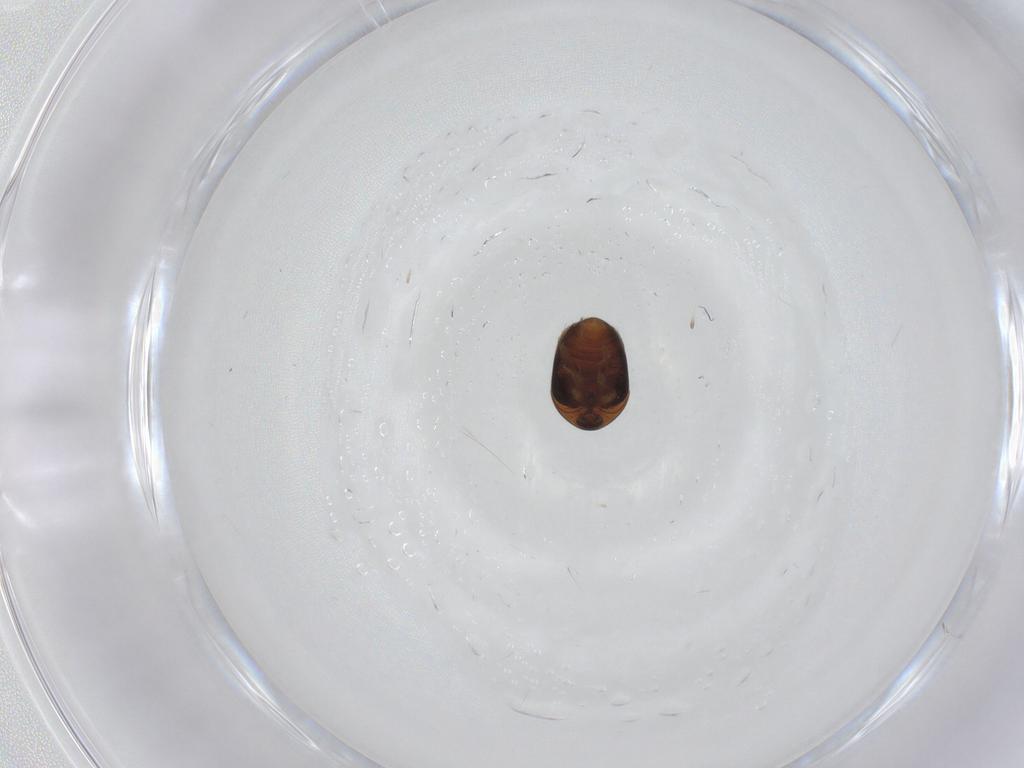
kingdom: Animalia
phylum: Arthropoda
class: Insecta
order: Coleoptera
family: Corylophidae
